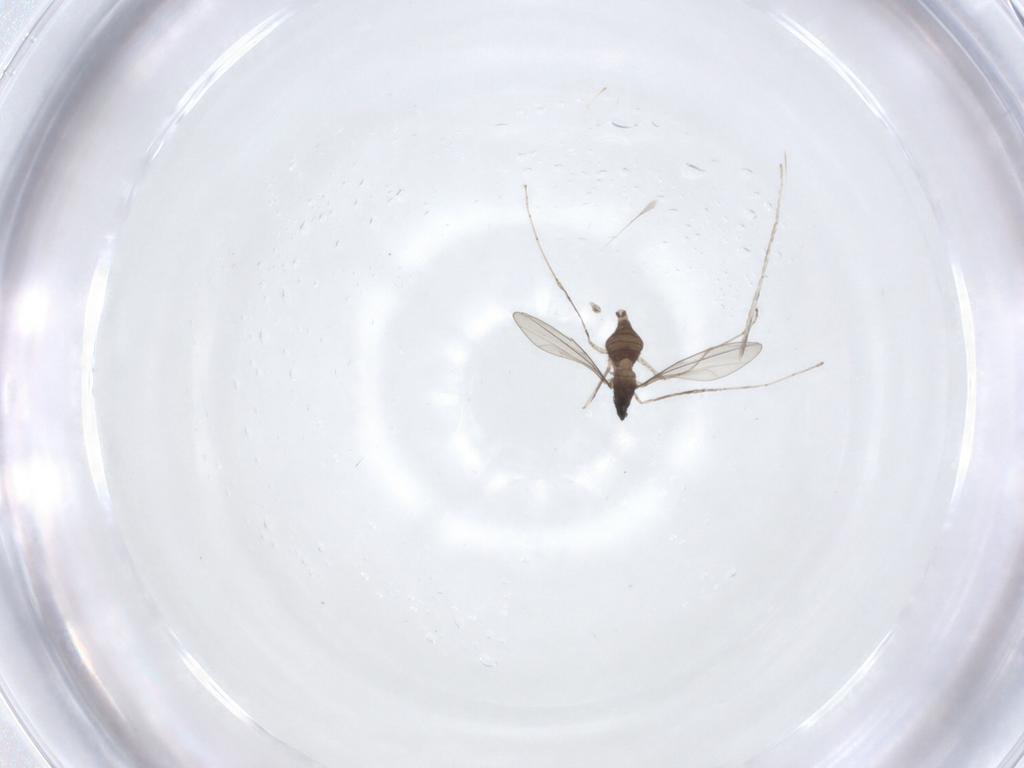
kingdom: Animalia
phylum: Arthropoda
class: Insecta
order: Diptera
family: Cecidomyiidae
